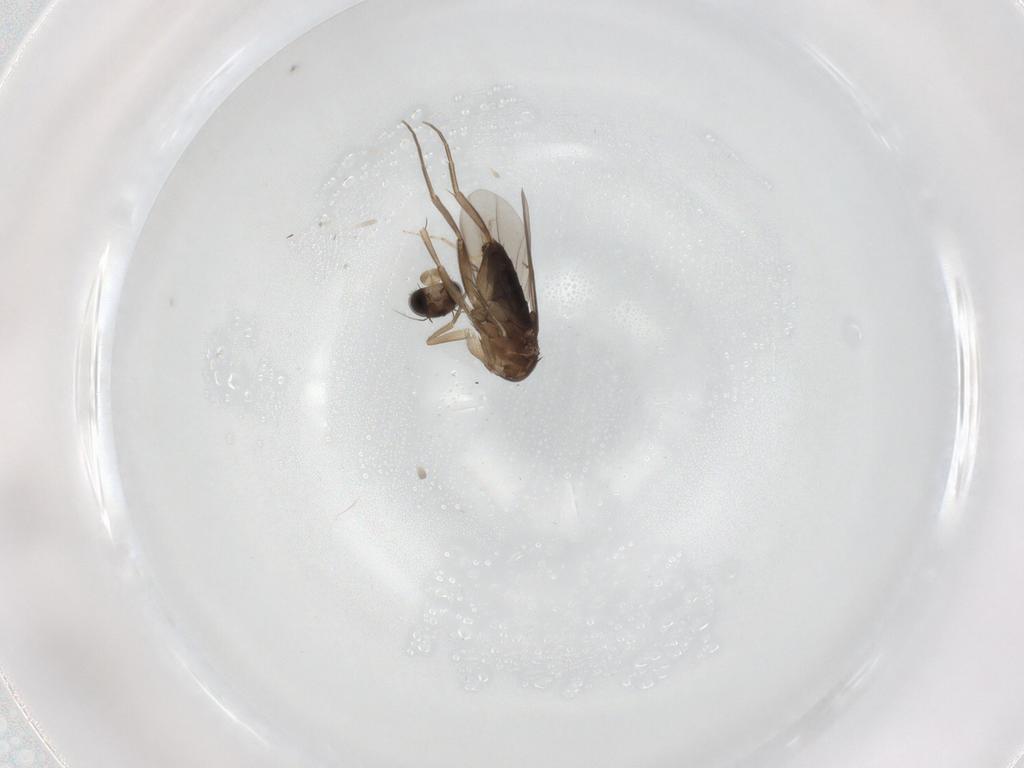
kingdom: Animalia
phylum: Arthropoda
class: Insecta
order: Diptera
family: Phoridae
